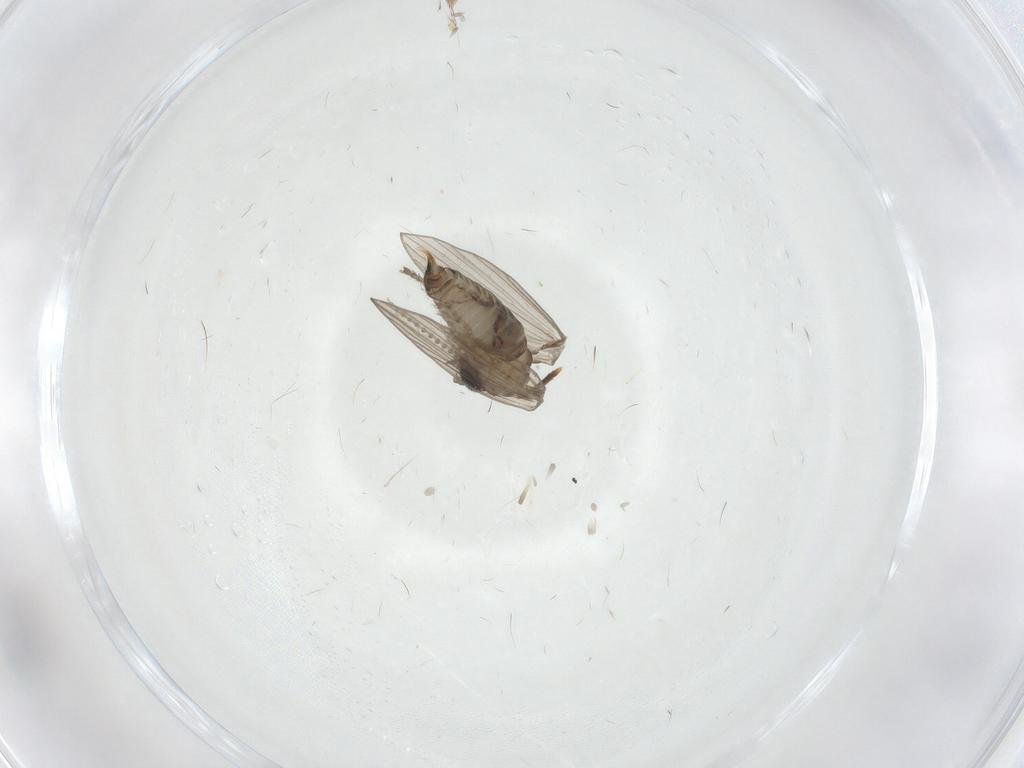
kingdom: Animalia
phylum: Arthropoda
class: Insecta
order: Diptera
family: Psychodidae
